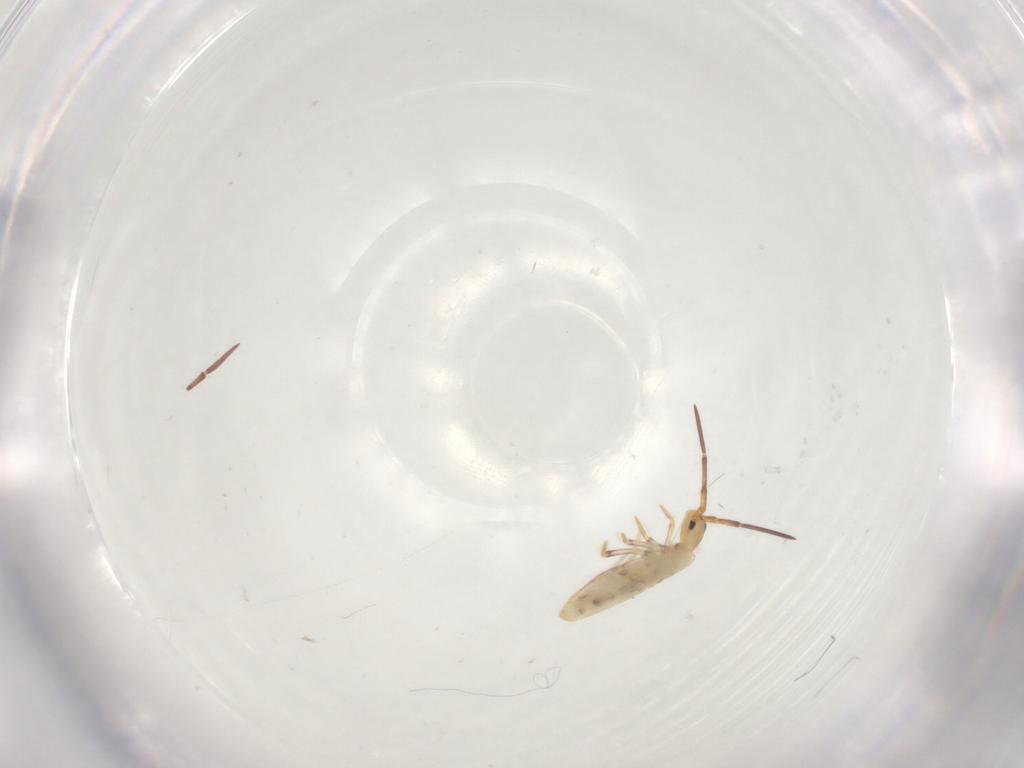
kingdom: Animalia
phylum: Arthropoda
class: Collembola
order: Poduromorpha
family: Hypogastruridae
